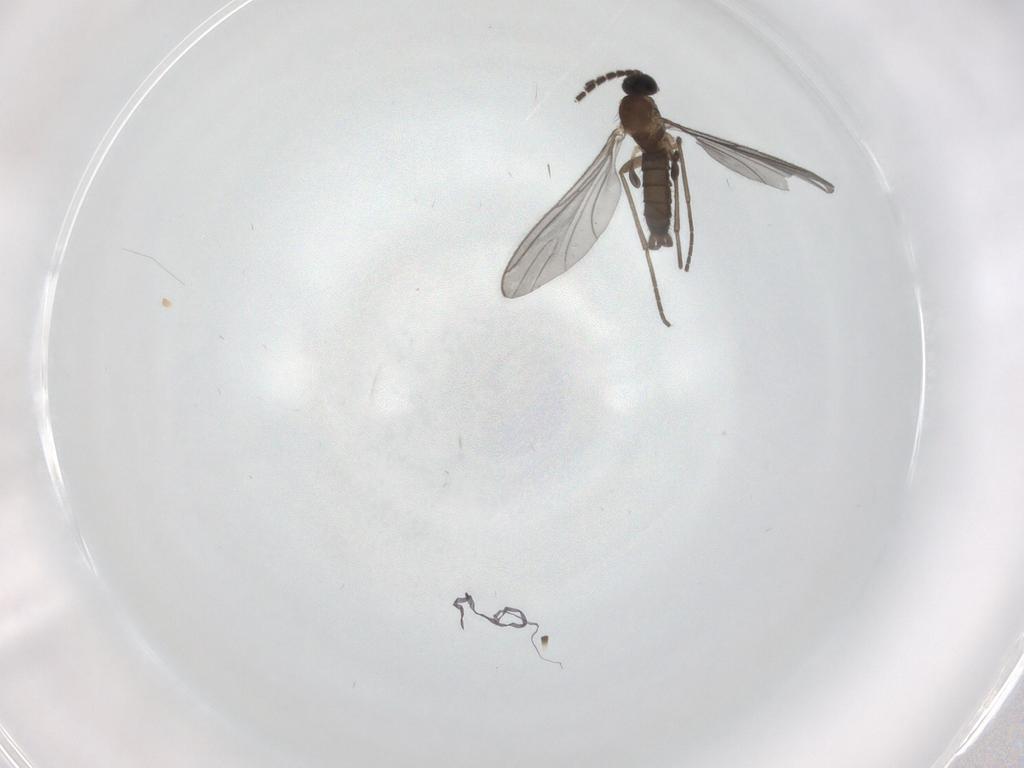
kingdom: Animalia
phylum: Arthropoda
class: Insecta
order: Diptera
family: Sciaridae
